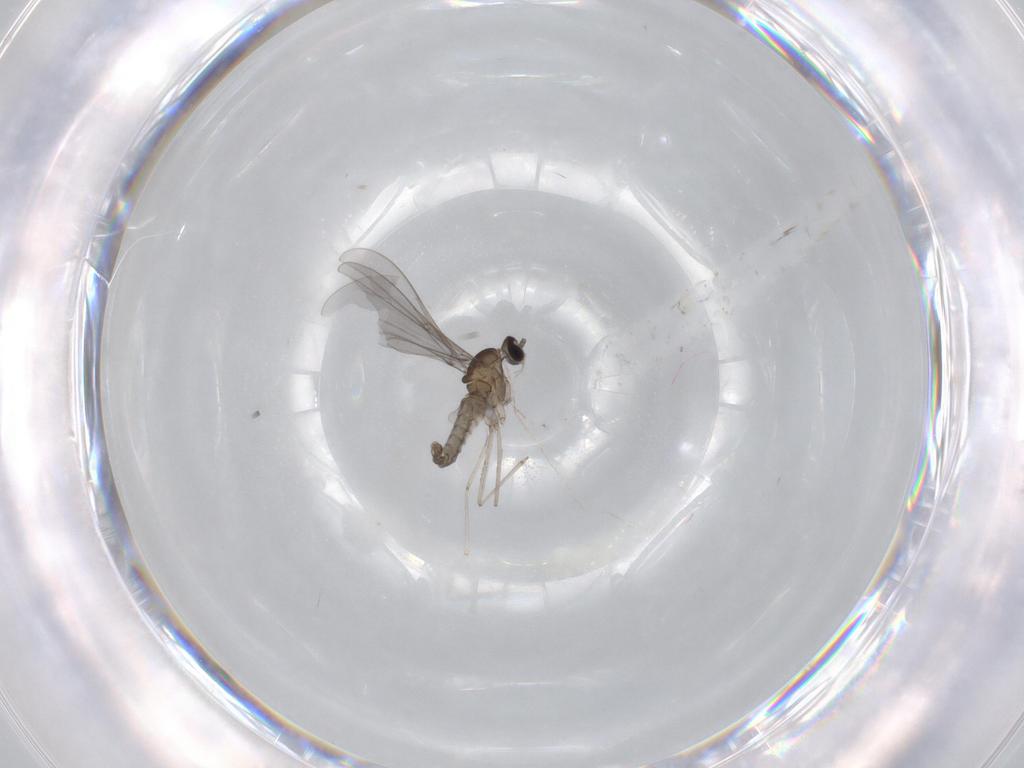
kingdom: Animalia
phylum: Arthropoda
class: Insecta
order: Diptera
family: Cecidomyiidae
